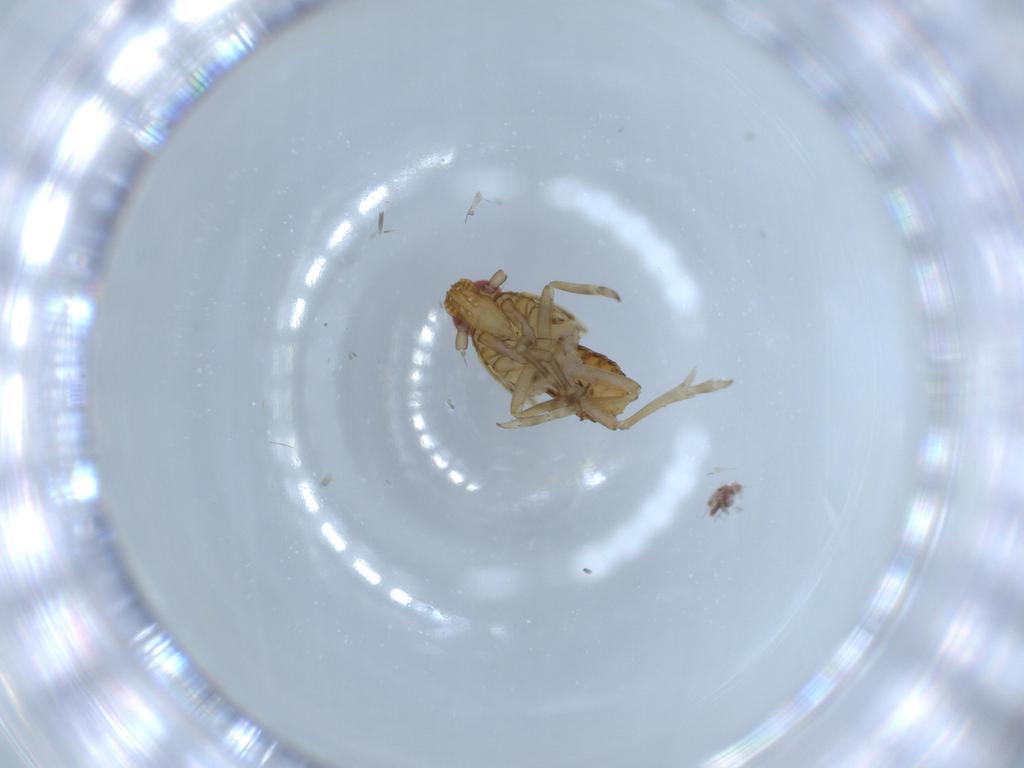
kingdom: Animalia
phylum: Arthropoda
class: Insecta
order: Hemiptera
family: Delphacidae
